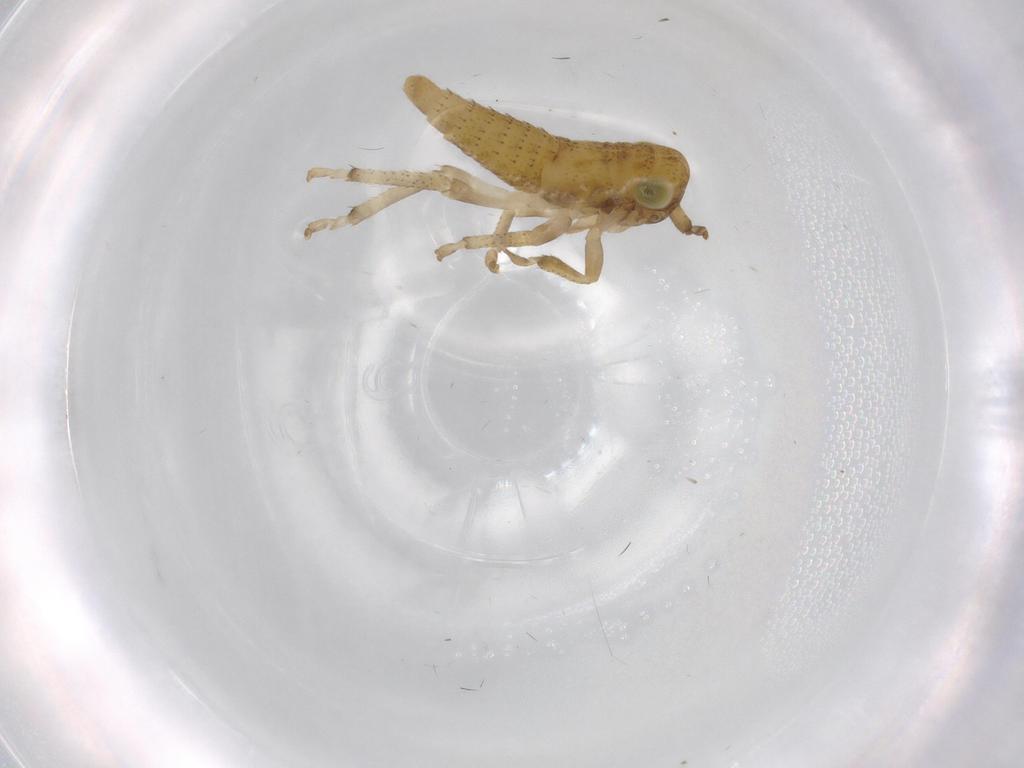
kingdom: Animalia
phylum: Arthropoda
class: Insecta
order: Hemiptera
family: Cicadellidae
